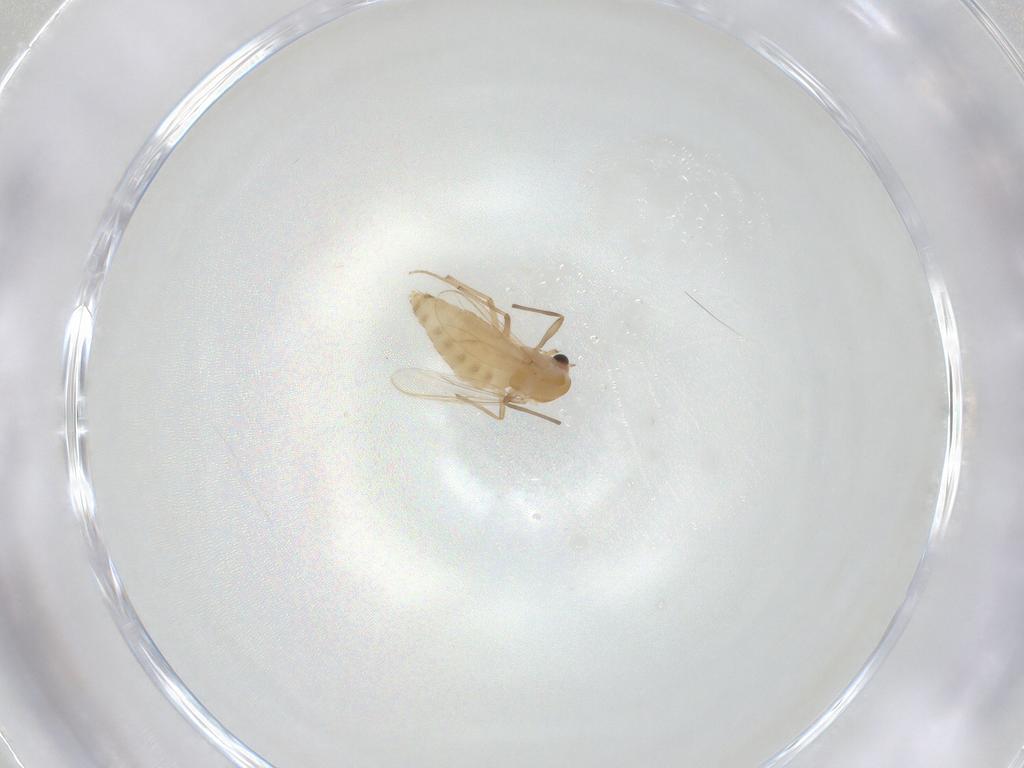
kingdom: Animalia
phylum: Arthropoda
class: Insecta
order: Diptera
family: Chironomidae
